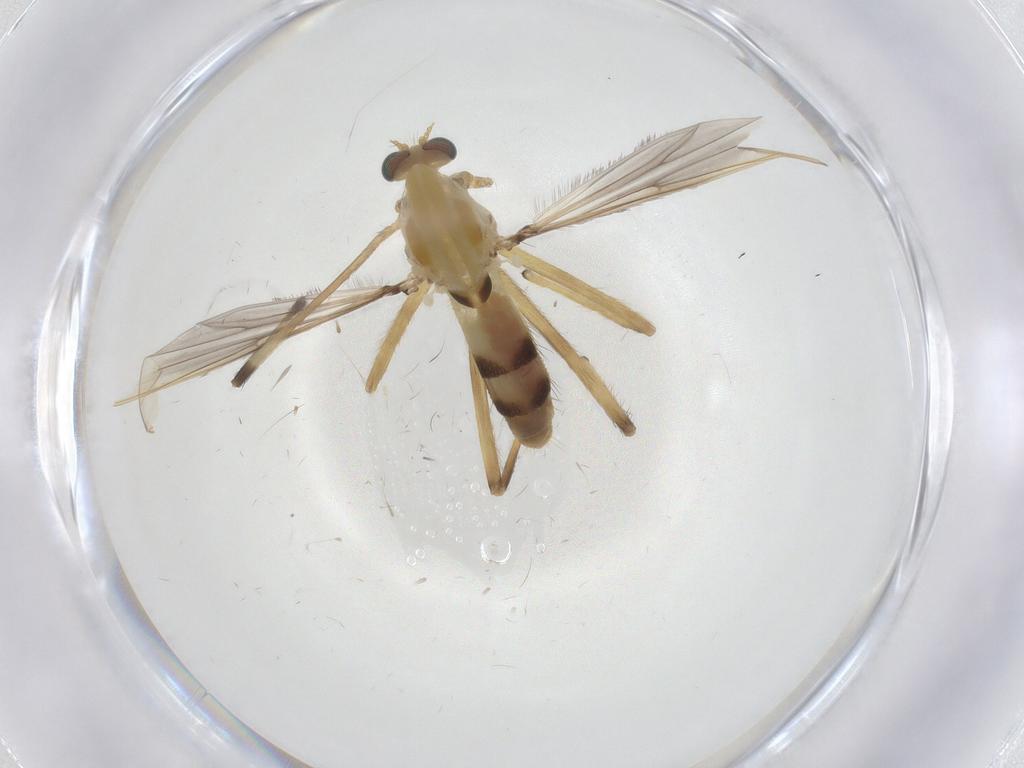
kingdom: Animalia
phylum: Arthropoda
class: Insecta
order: Diptera
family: Chironomidae
